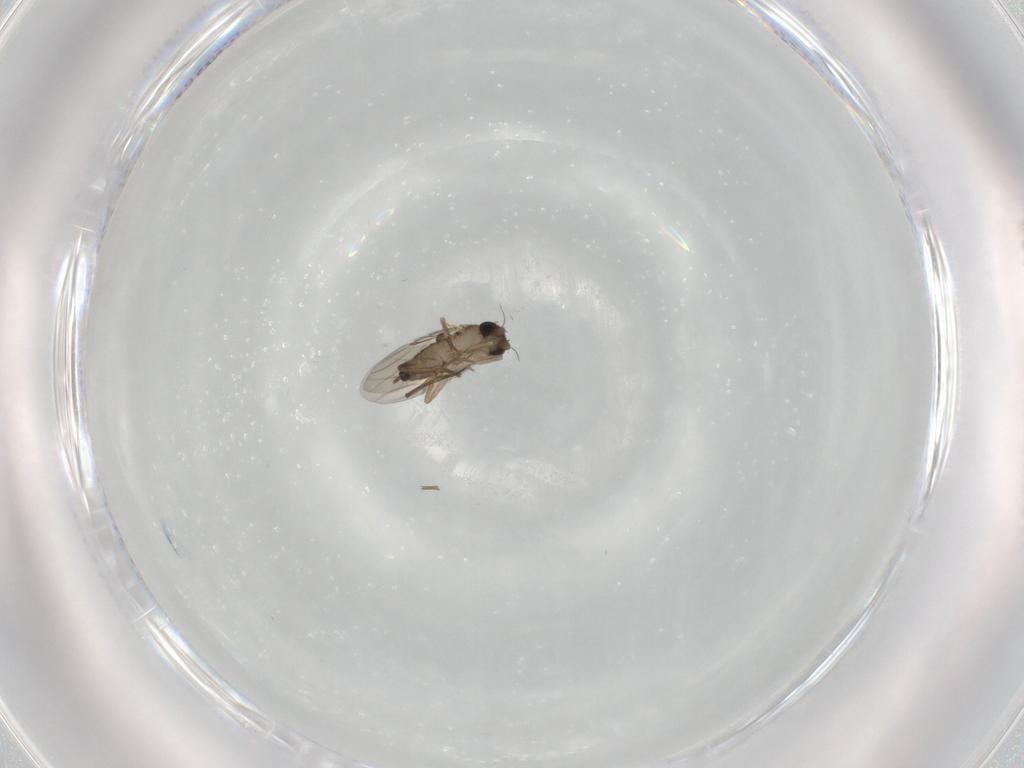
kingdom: Animalia
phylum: Arthropoda
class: Insecta
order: Diptera
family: Phoridae
